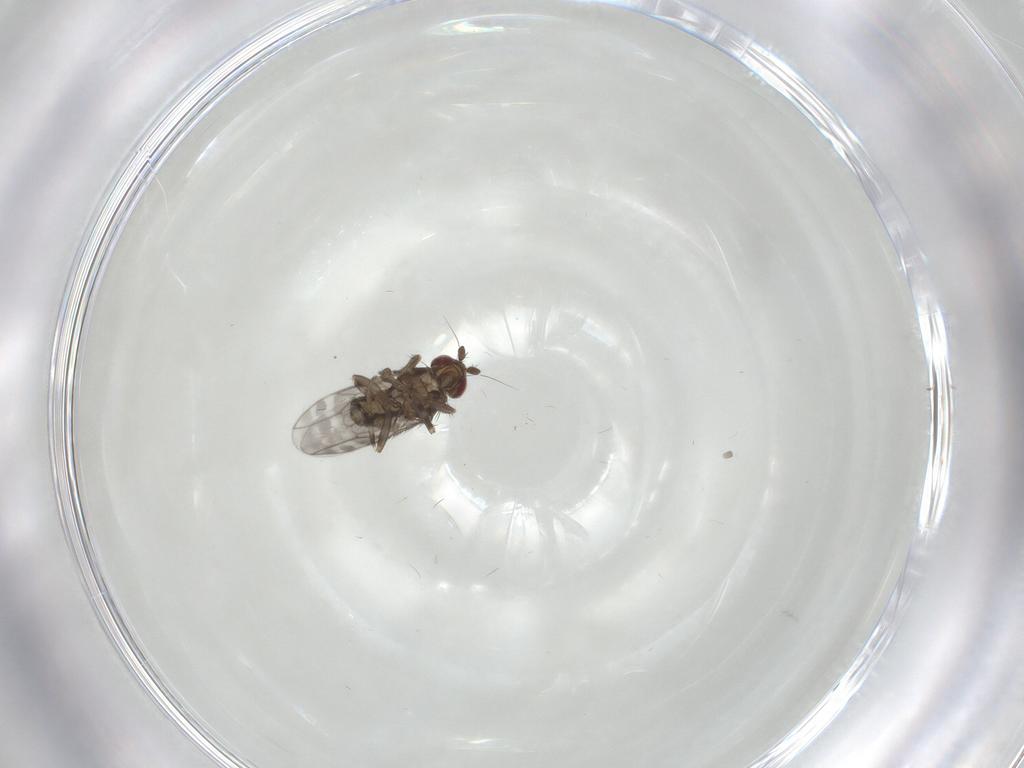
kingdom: Animalia
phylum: Arthropoda
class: Insecta
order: Diptera
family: Sphaeroceridae
